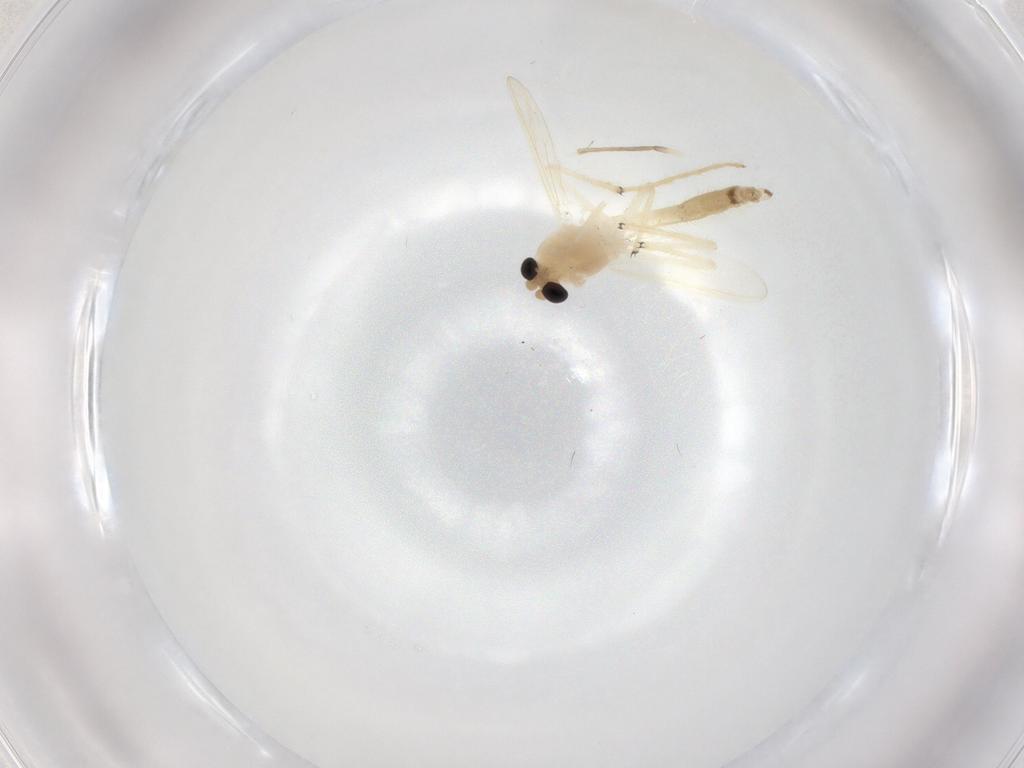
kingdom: Animalia
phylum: Arthropoda
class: Insecta
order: Diptera
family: Chironomidae
